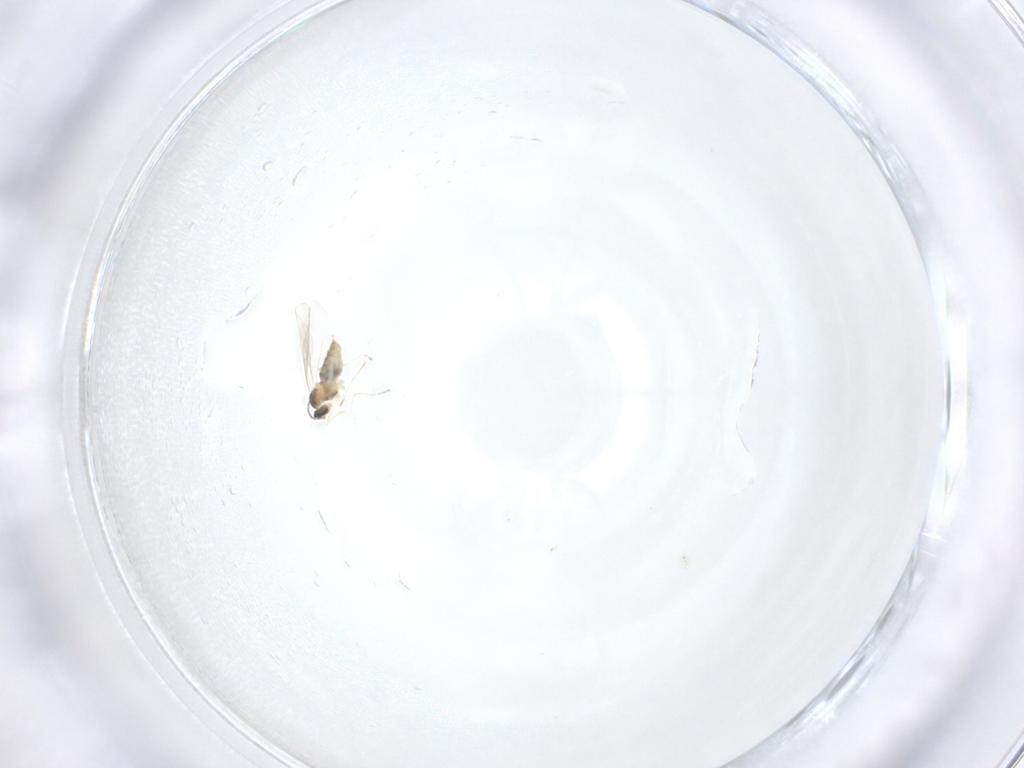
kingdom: Animalia
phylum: Arthropoda
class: Insecta
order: Diptera
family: Cecidomyiidae
